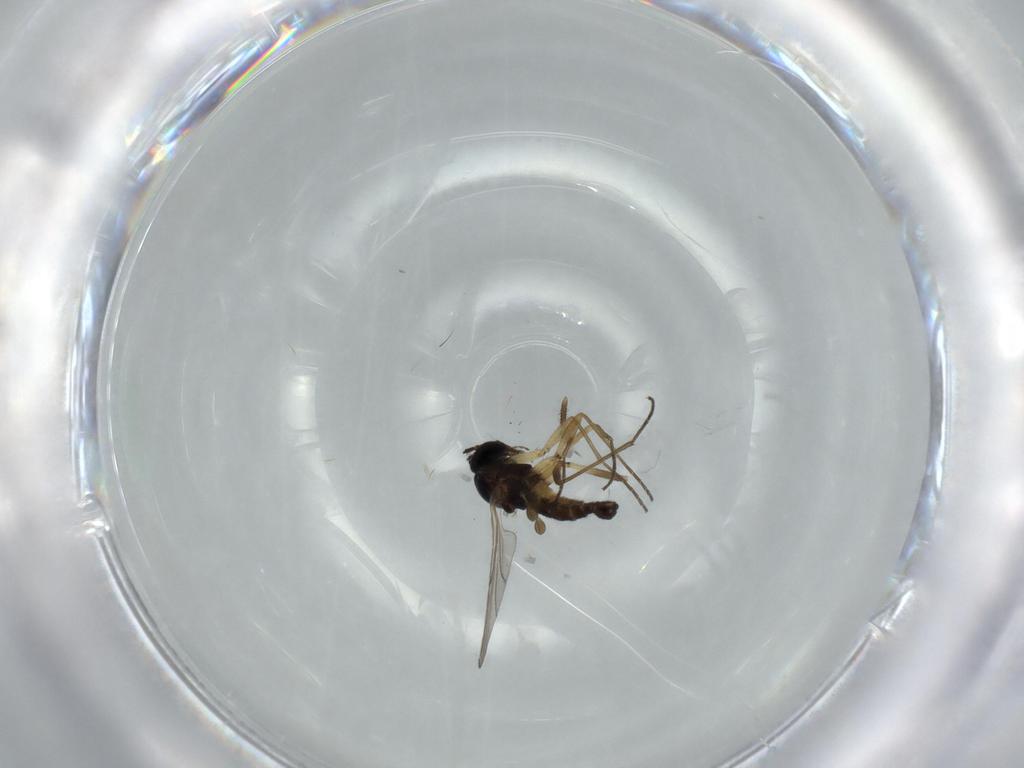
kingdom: Animalia
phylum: Arthropoda
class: Insecta
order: Diptera
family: Sciaridae
